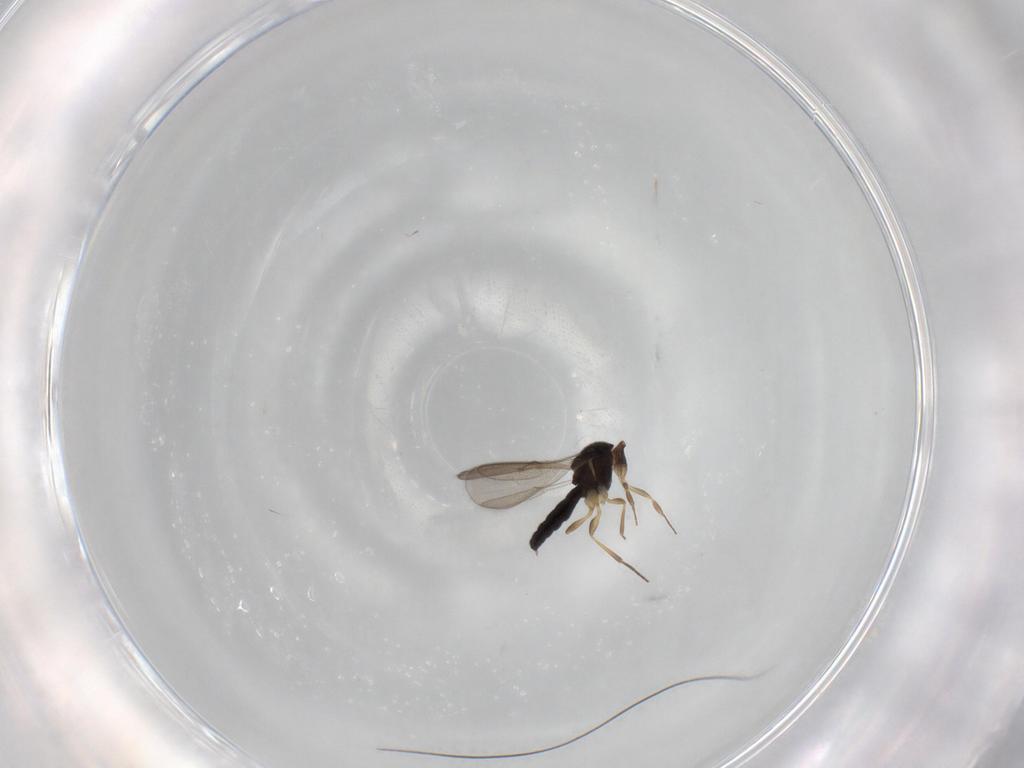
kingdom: Animalia
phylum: Arthropoda
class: Insecta
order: Hymenoptera
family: Scelionidae
